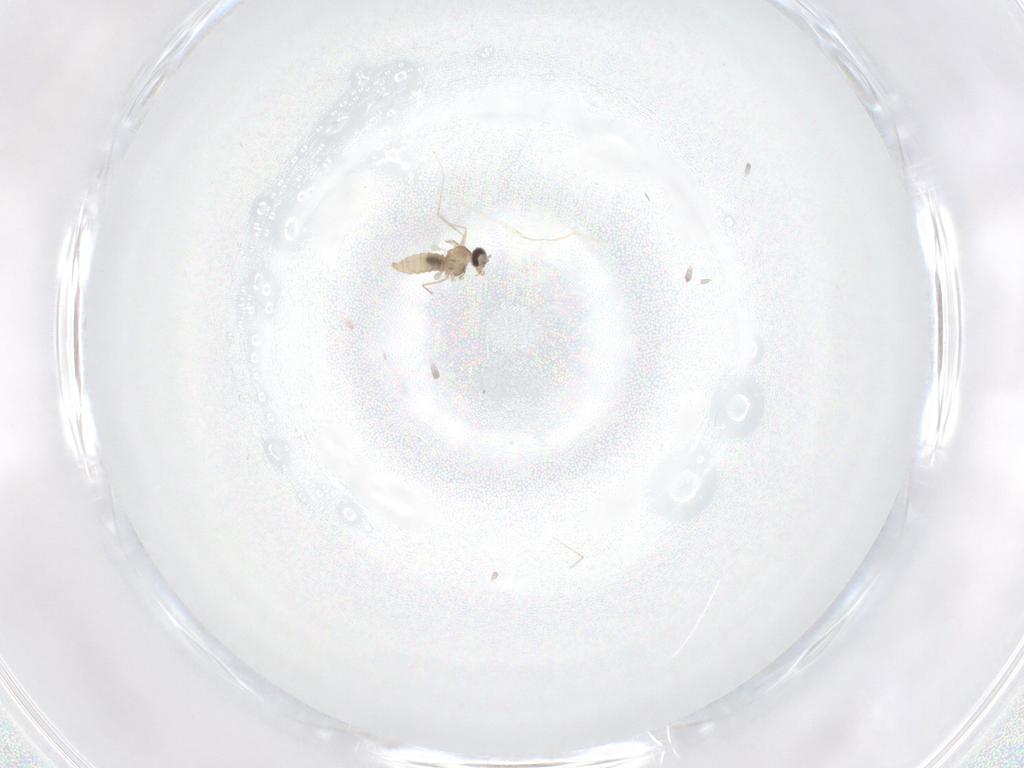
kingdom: Animalia
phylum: Arthropoda
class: Insecta
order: Diptera
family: Cecidomyiidae
